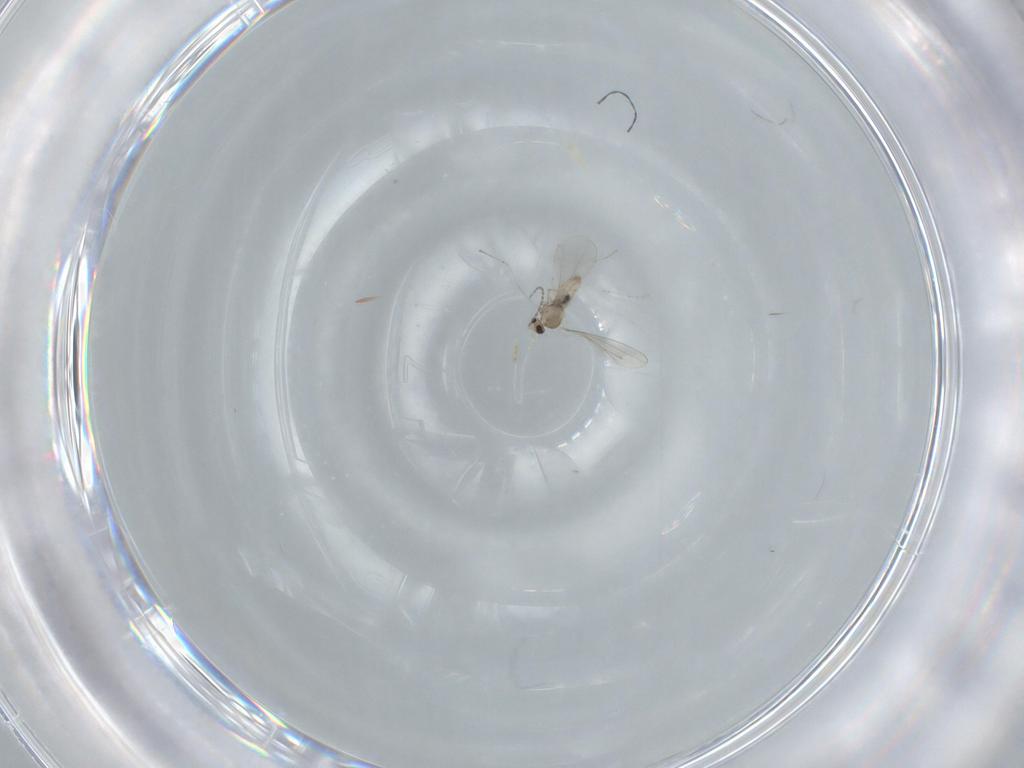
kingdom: Animalia
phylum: Arthropoda
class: Insecta
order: Diptera
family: Cecidomyiidae
